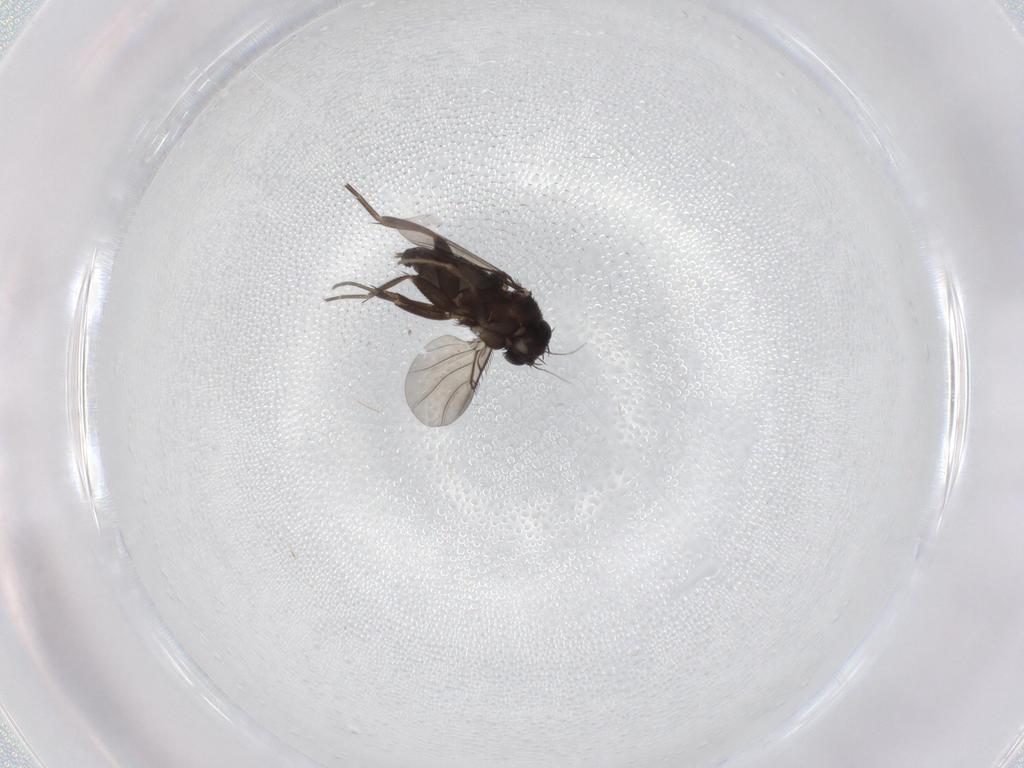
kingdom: Animalia
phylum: Arthropoda
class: Insecta
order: Diptera
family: Phoridae
